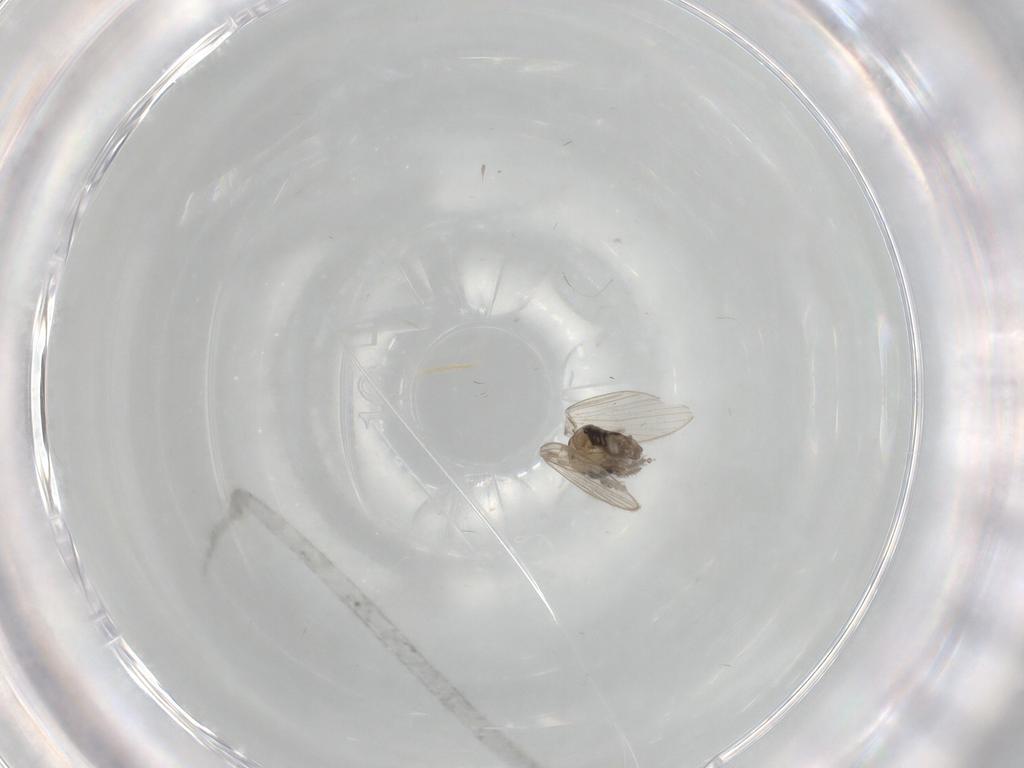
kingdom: Animalia
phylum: Arthropoda
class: Insecta
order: Diptera
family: Psychodidae
